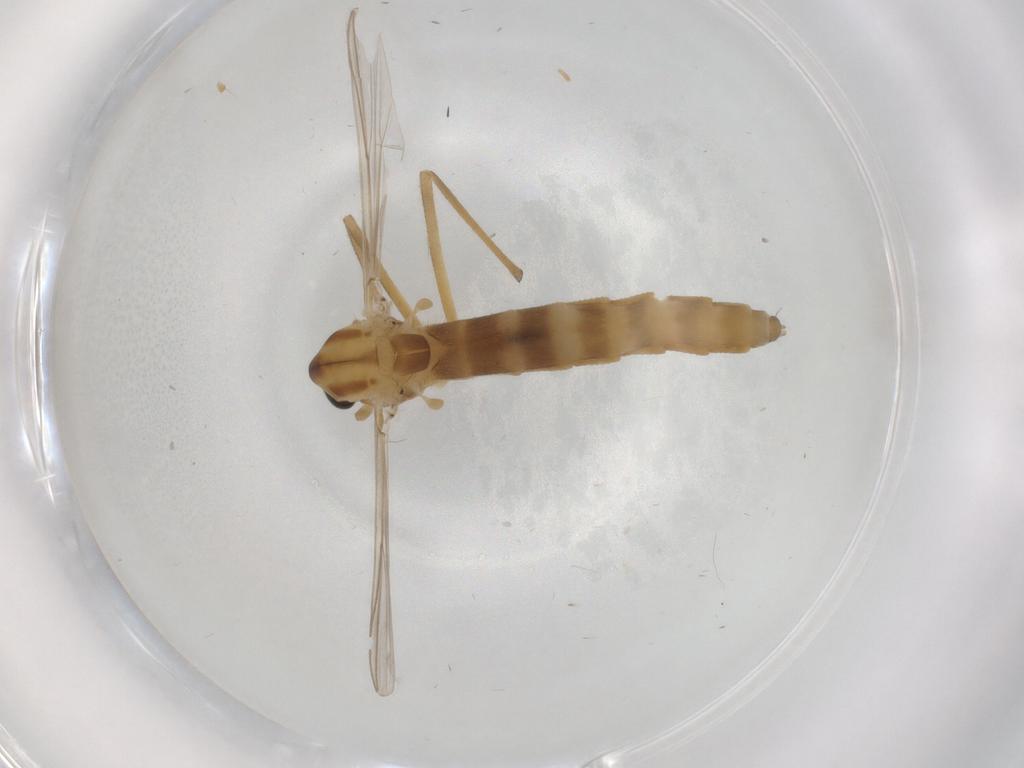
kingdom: Animalia
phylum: Arthropoda
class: Insecta
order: Diptera
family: Chironomidae
